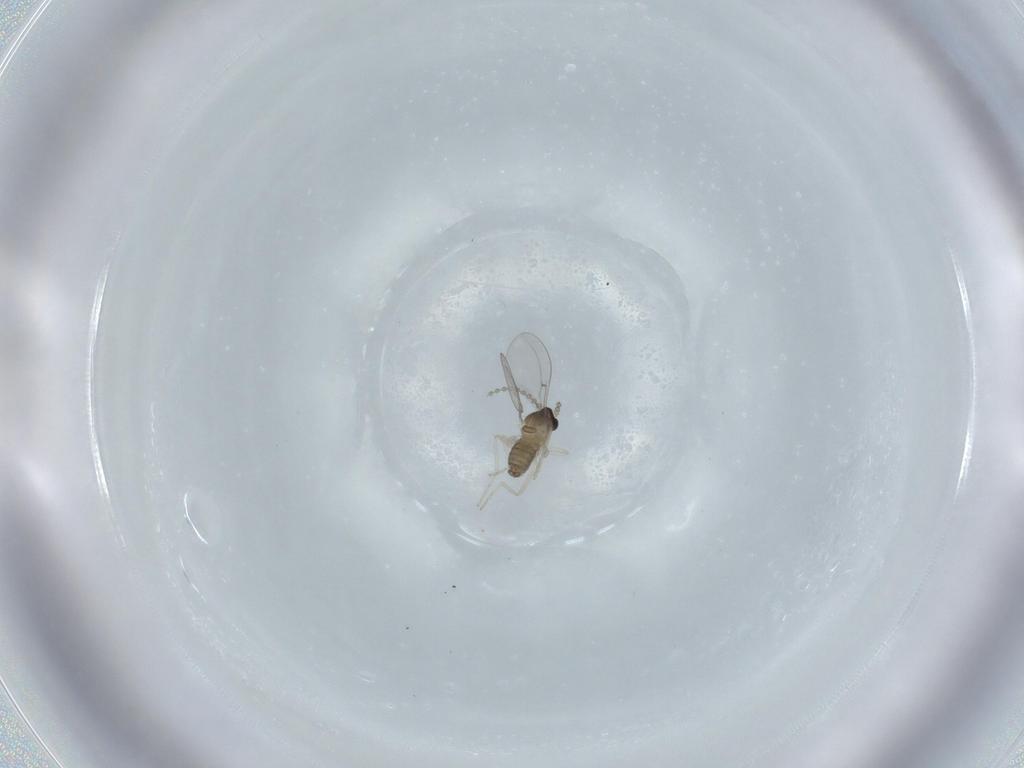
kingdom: Animalia
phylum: Arthropoda
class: Insecta
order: Diptera
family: Cecidomyiidae
